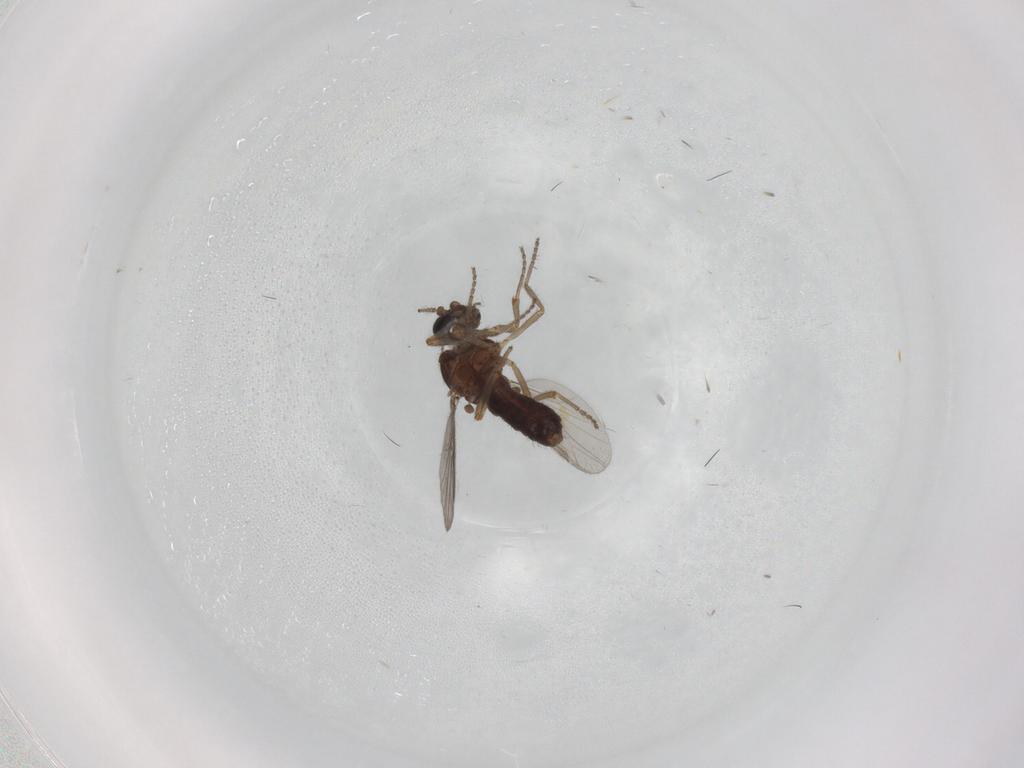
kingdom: Animalia
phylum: Arthropoda
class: Insecta
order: Diptera
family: Ceratopogonidae
